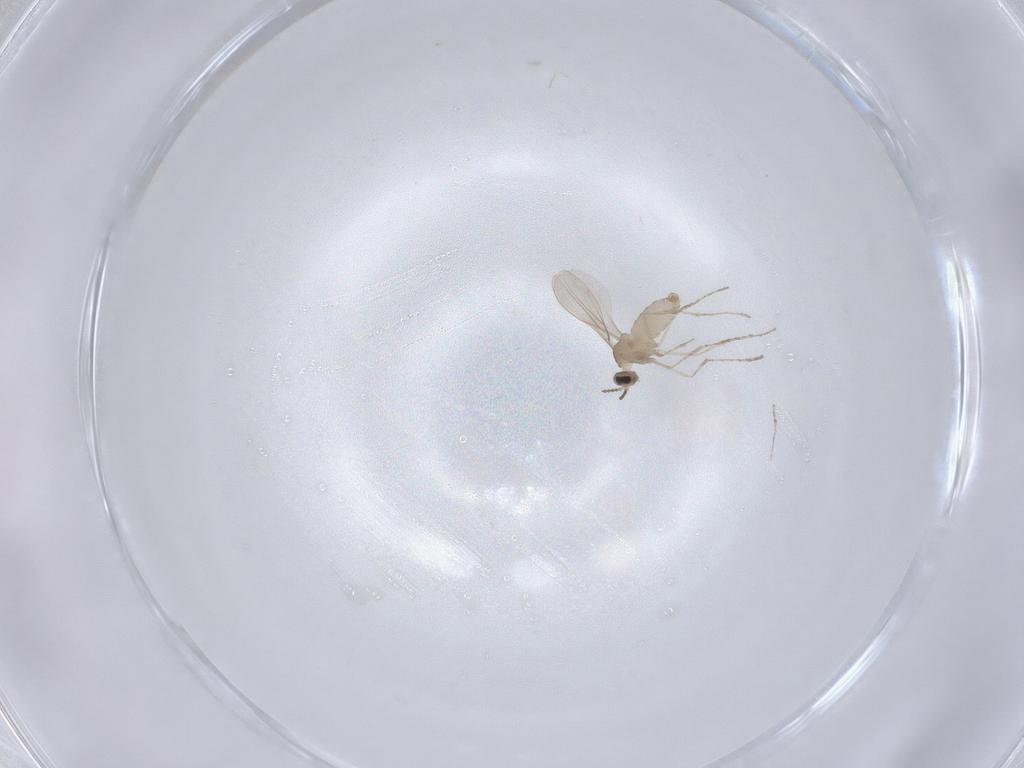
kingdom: Animalia
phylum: Arthropoda
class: Insecta
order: Diptera
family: Cecidomyiidae
